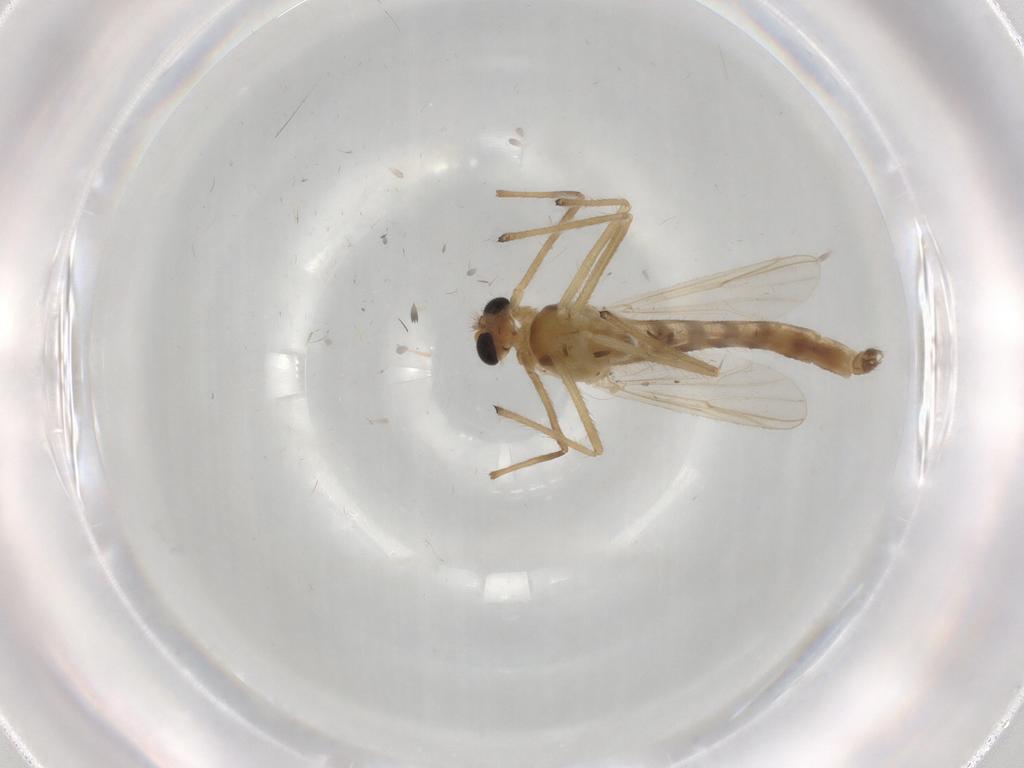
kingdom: Animalia
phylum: Arthropoda
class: Insecta
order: Diptera
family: Chironomidae
